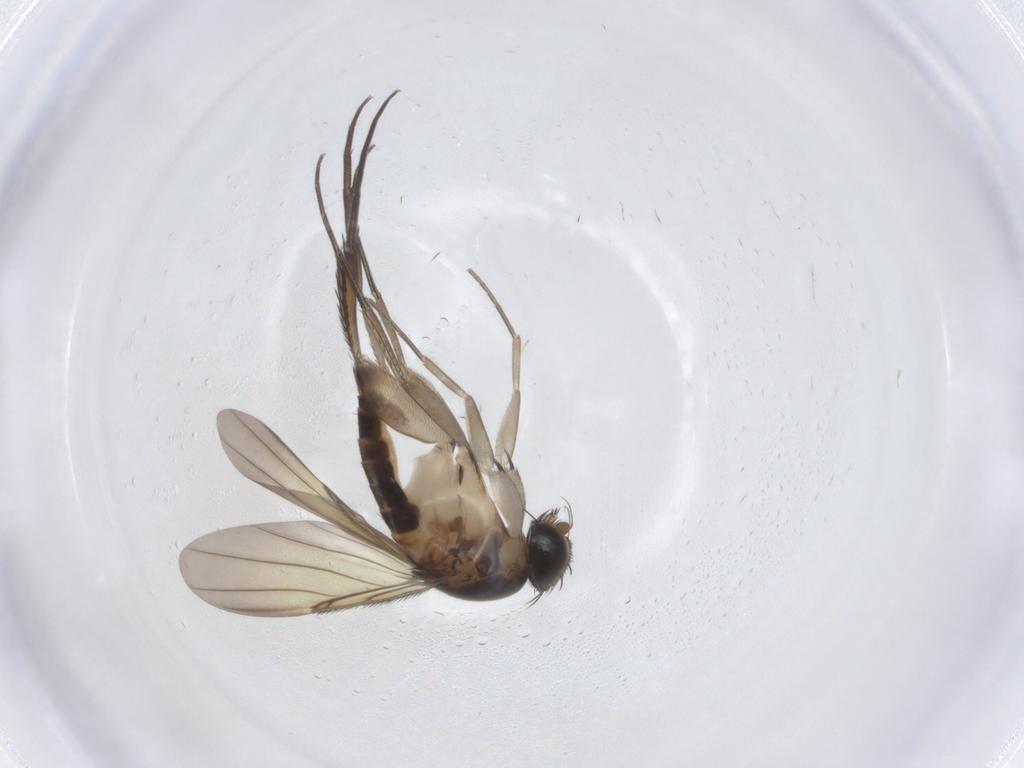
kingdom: Animalia
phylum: Arthropoda
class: Insecta
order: Diptera
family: Phoridae
